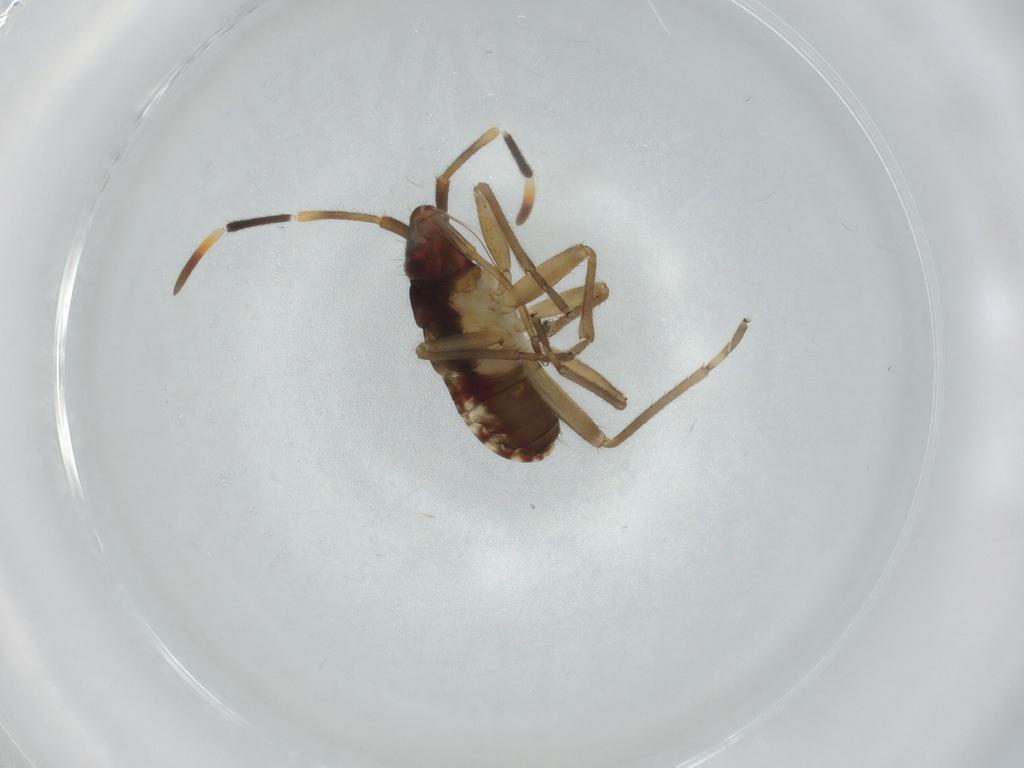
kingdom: Animalia
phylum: Arthropoda
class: Insecta
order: Hemiptera
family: Rhyparochromidae
